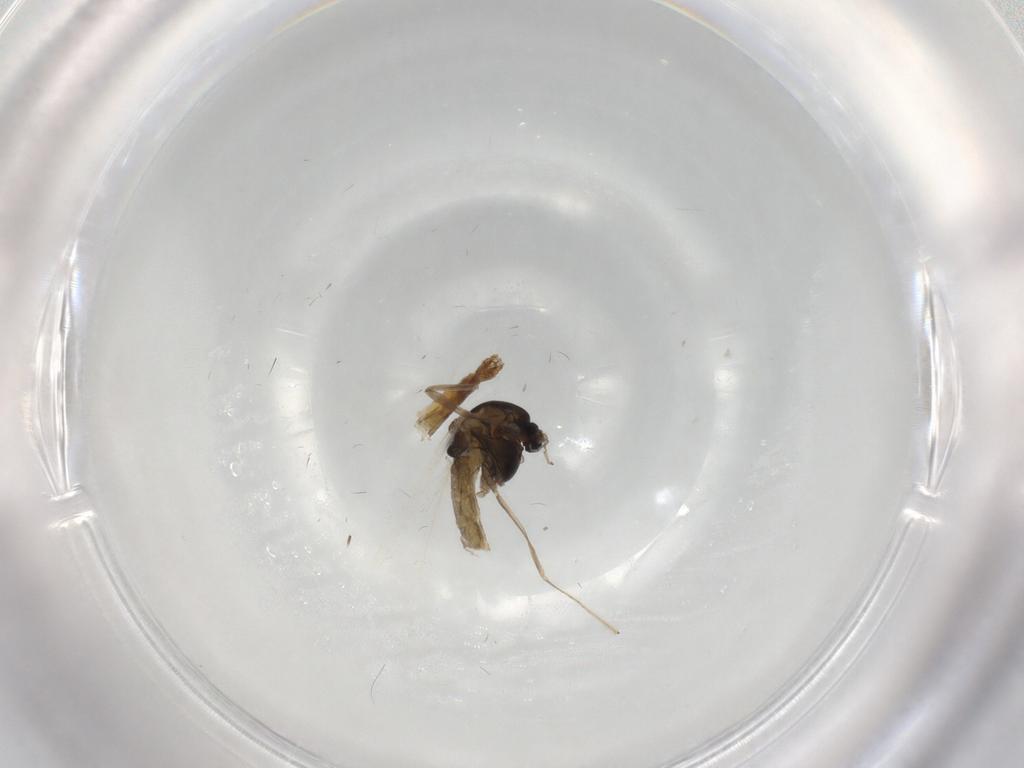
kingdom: Animalia
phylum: Arthropoda
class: Insecta
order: Diptera
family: Chironomidae
